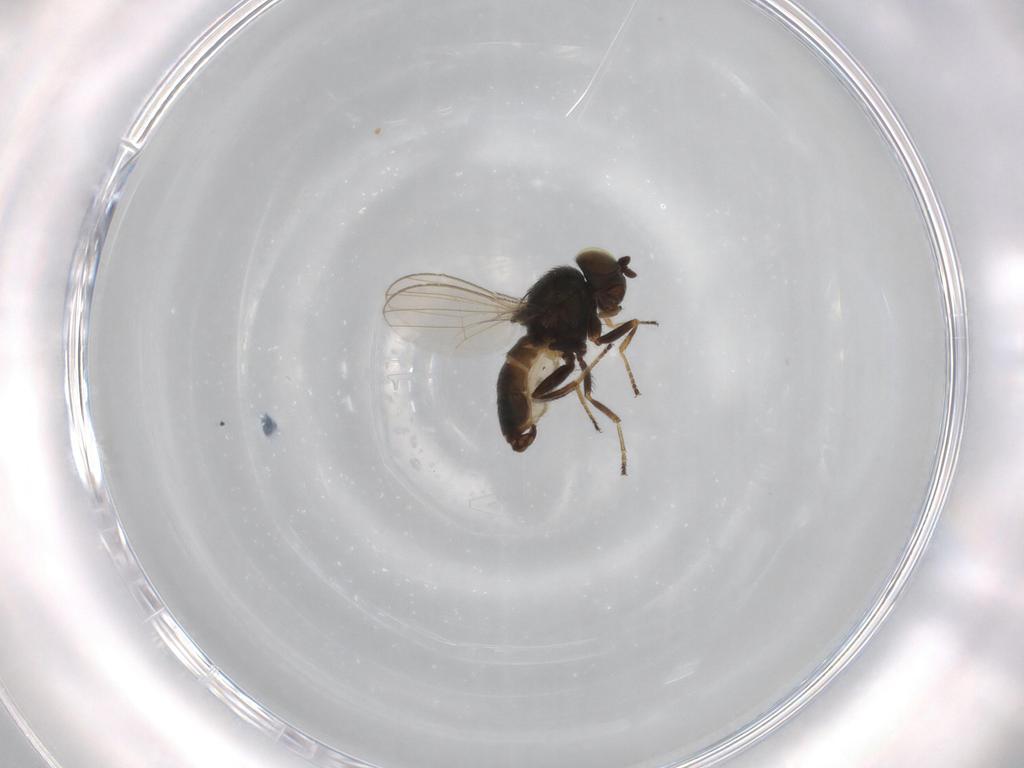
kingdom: Animalia
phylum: Arthropoda
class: Insecta
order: Diptera
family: Ephydridae
